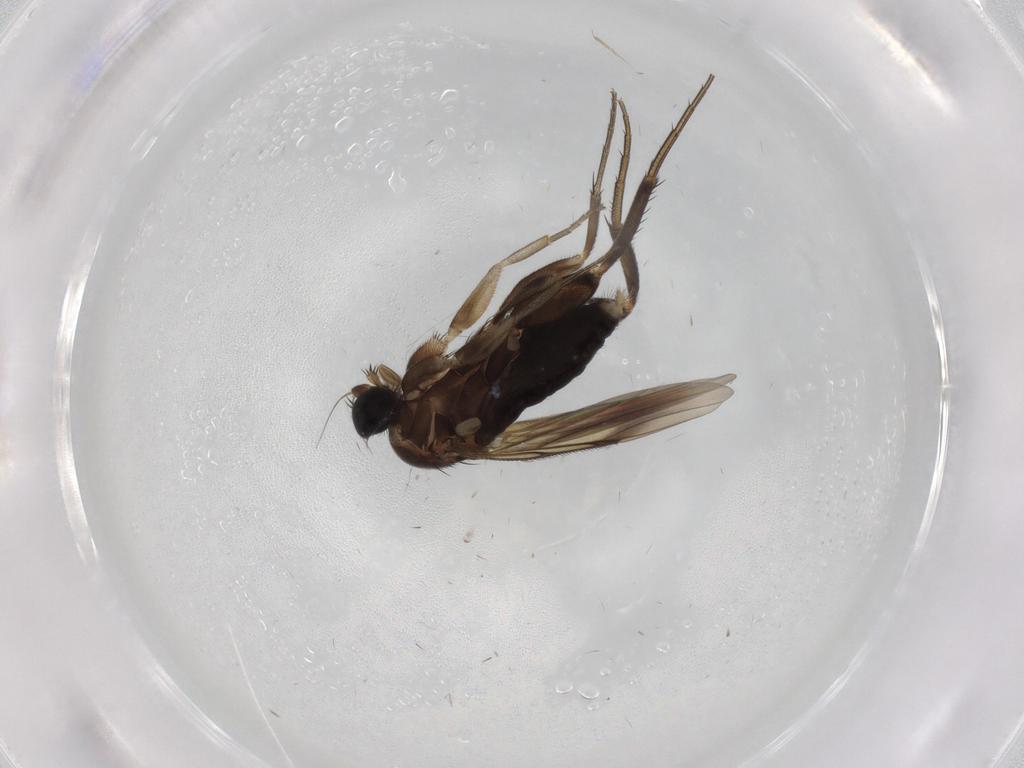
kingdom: Animalia
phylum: Arthropoda
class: Insecta
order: Diptera
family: Phoridae
